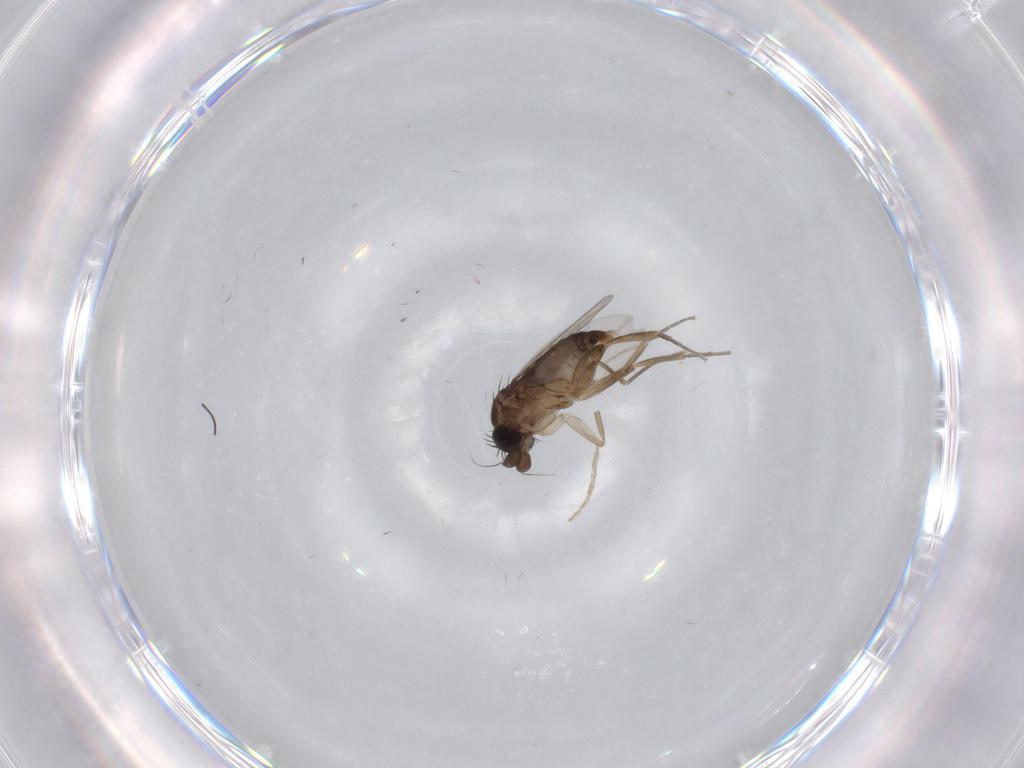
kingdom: Animalia
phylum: Arthropoda
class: Insecta
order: Diptera
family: Phoridae
